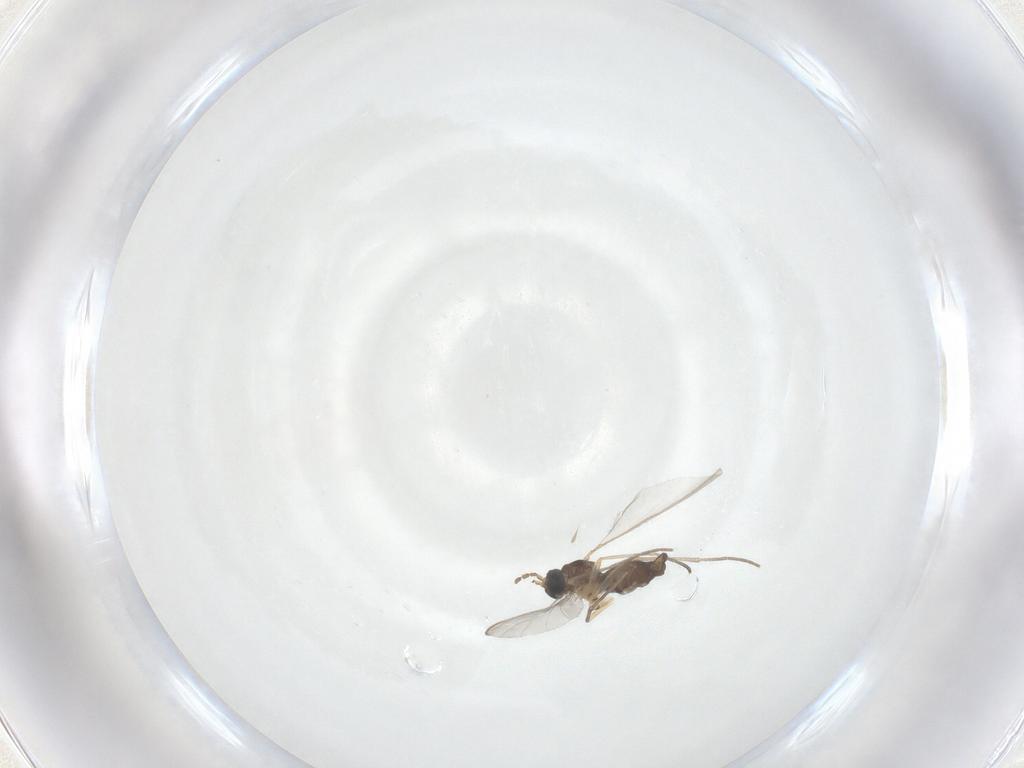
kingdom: Animalia
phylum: Arthropoda
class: Insecta
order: Diptera
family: Sciaridae
